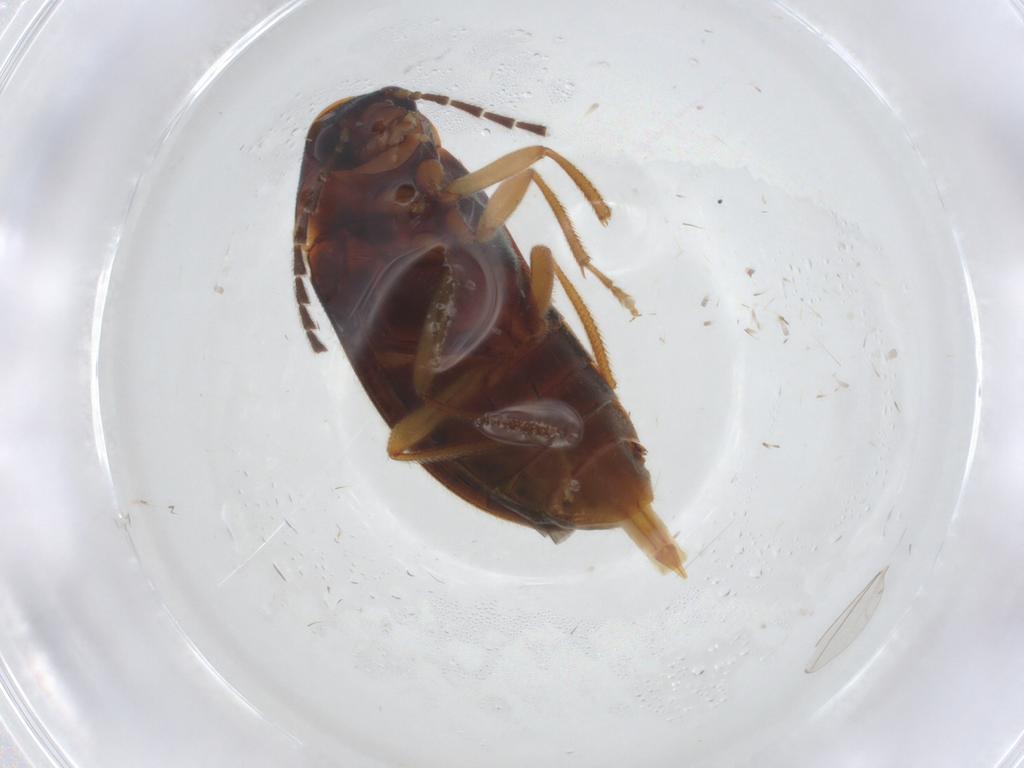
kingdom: Animalia
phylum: Arthropoda
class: Insecta
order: Coleoptera
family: Ptilodactylidae
